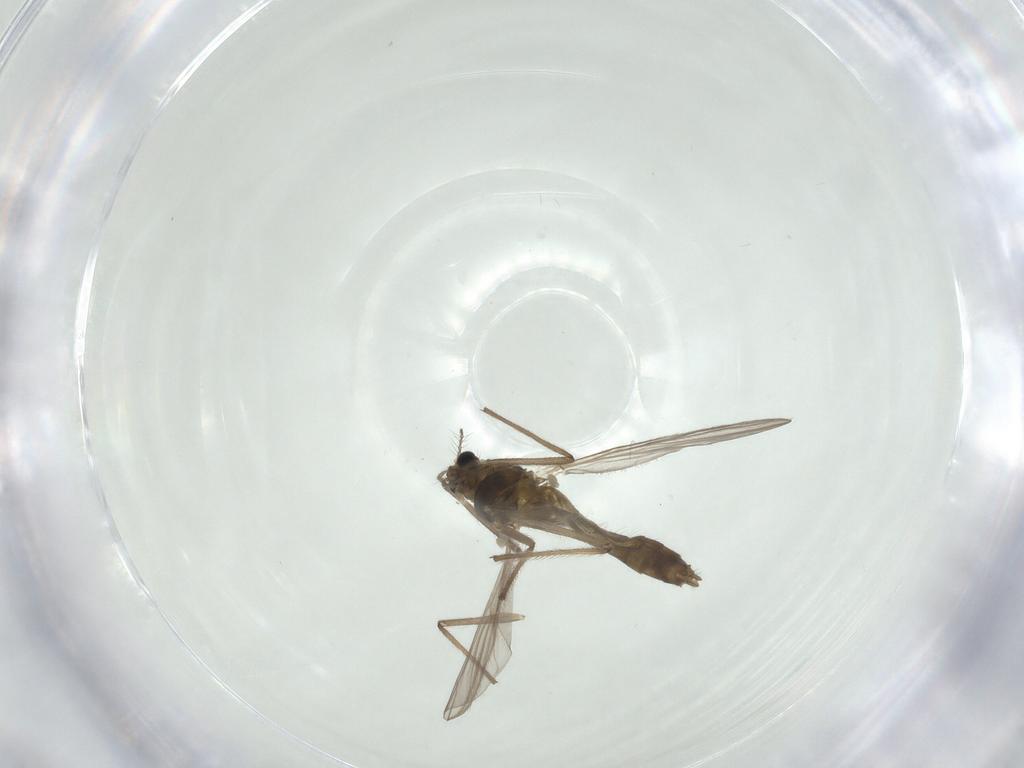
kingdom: Animalia
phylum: Arthropoda
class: Insecta
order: Diptera
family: Chironomidae
